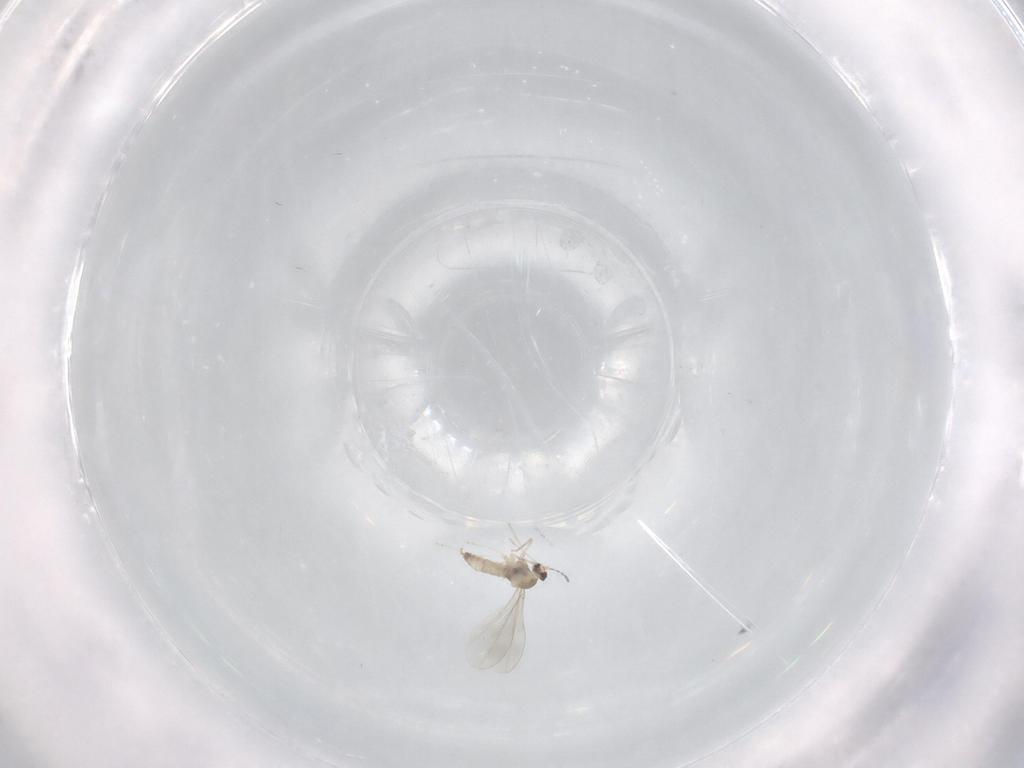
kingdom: Animalia
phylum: Arthropoda
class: Insecta
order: Diptera
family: Cecidomyiidae
